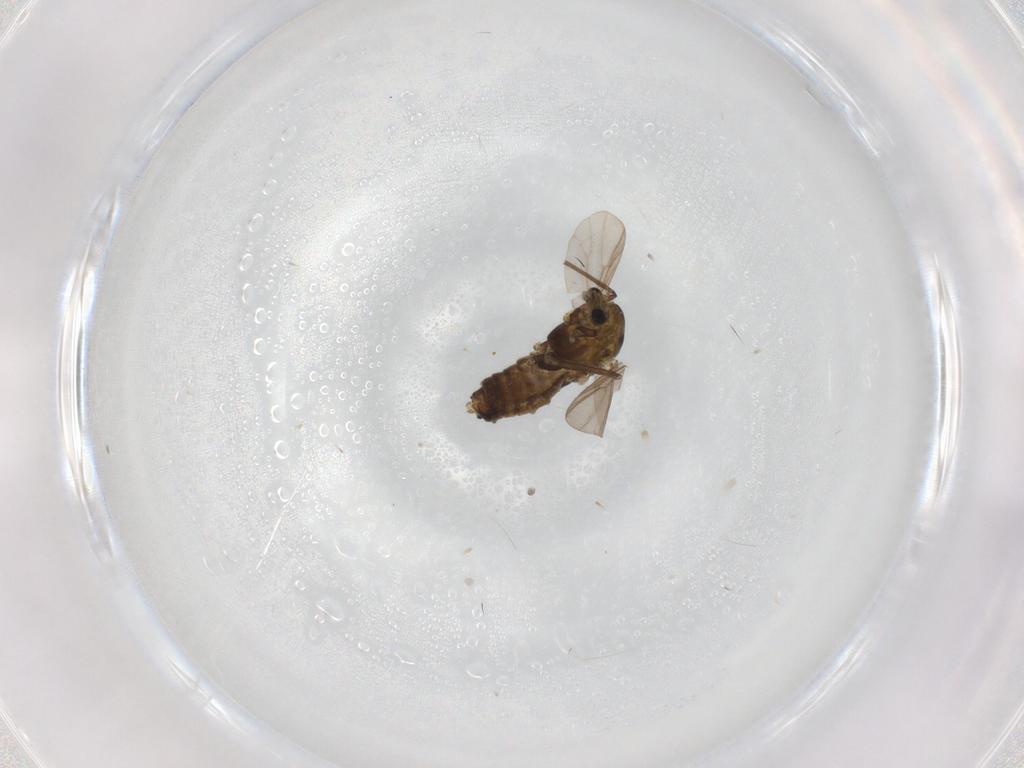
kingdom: Animalia
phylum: Arthropoda
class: Insecta
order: Diptera
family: Chironomidae
